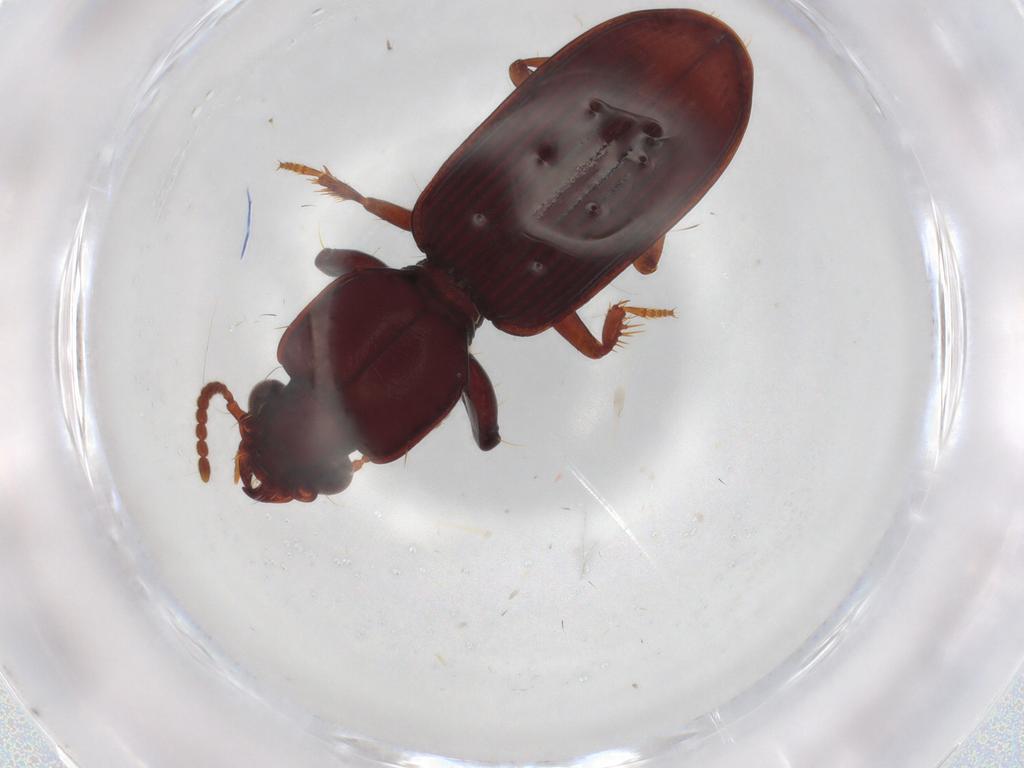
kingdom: Animalia
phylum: Arthropoda
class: Insecta
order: Coleoptera
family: Carabidae
